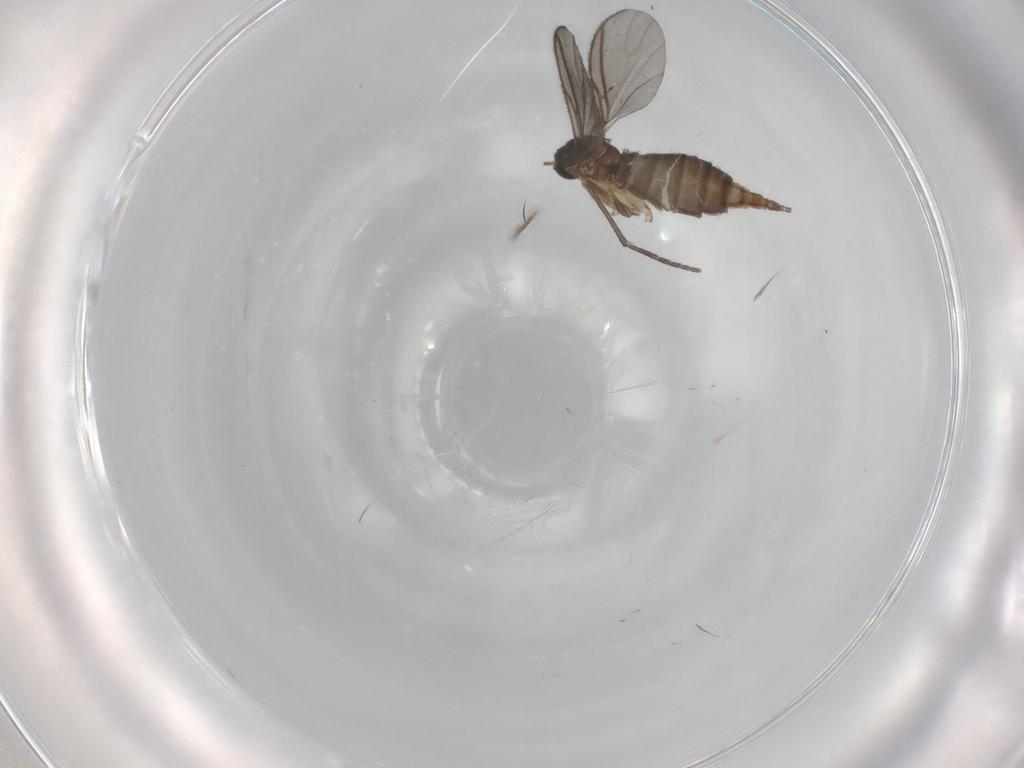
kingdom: Animalia
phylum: Arthropoda
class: Insecta
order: Diptera
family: Sciaridae
